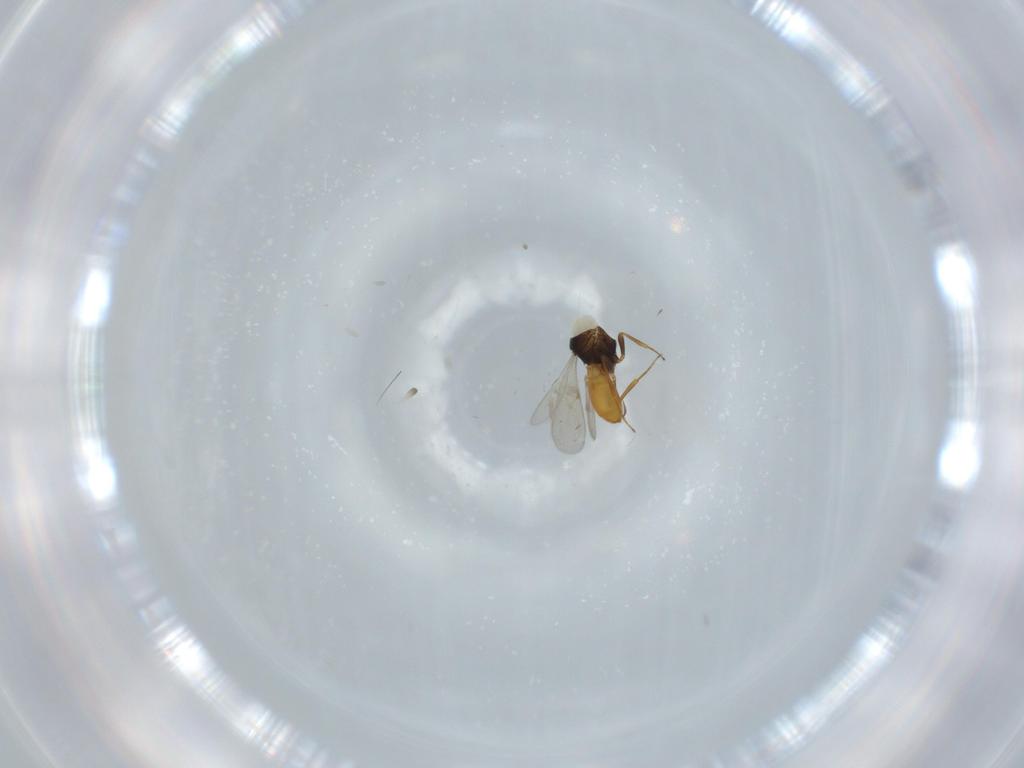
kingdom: Animalia
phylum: Arthropoda
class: Insecta
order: Hymenoptera
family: Scelionidae
